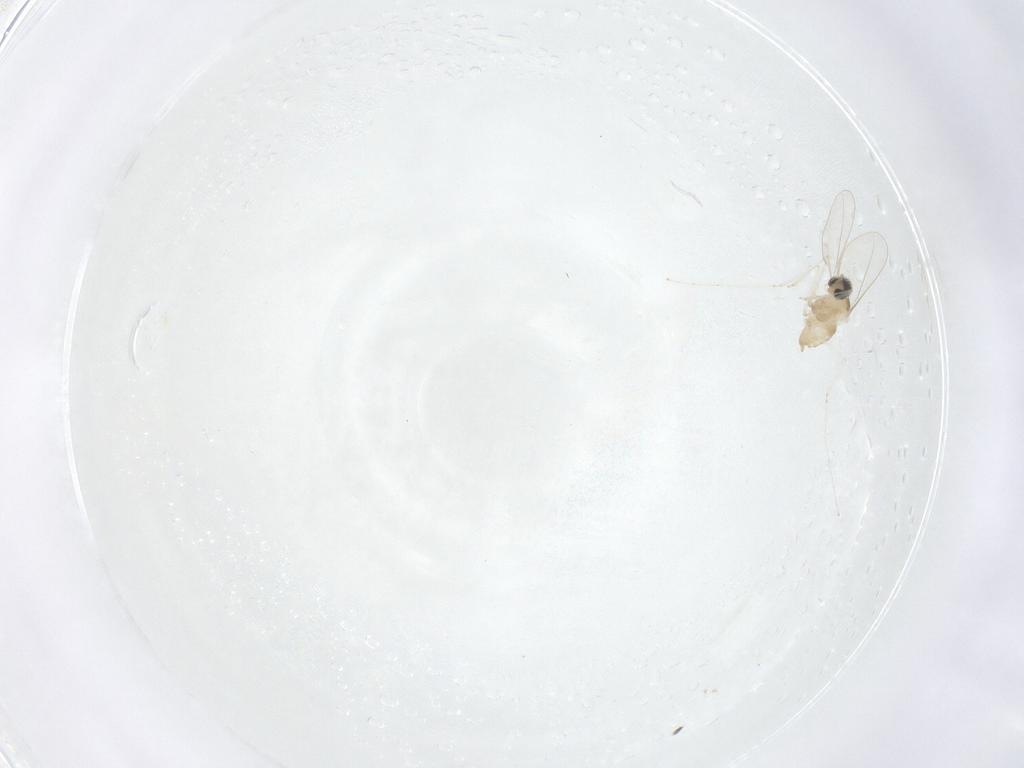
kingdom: Animalia
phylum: Arthropoda
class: Insecta
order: Diptera
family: Cecidomyiidae
